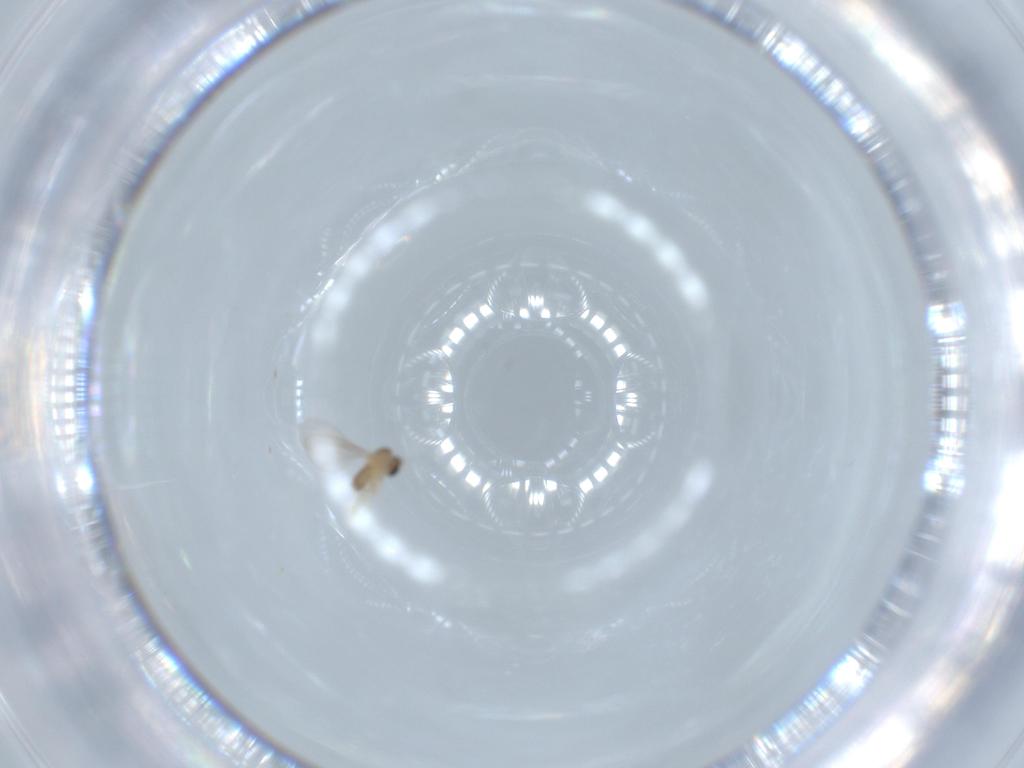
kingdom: Animalia
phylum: Arthropoda
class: Insecta
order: Diptera
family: Cecidomyiidae
